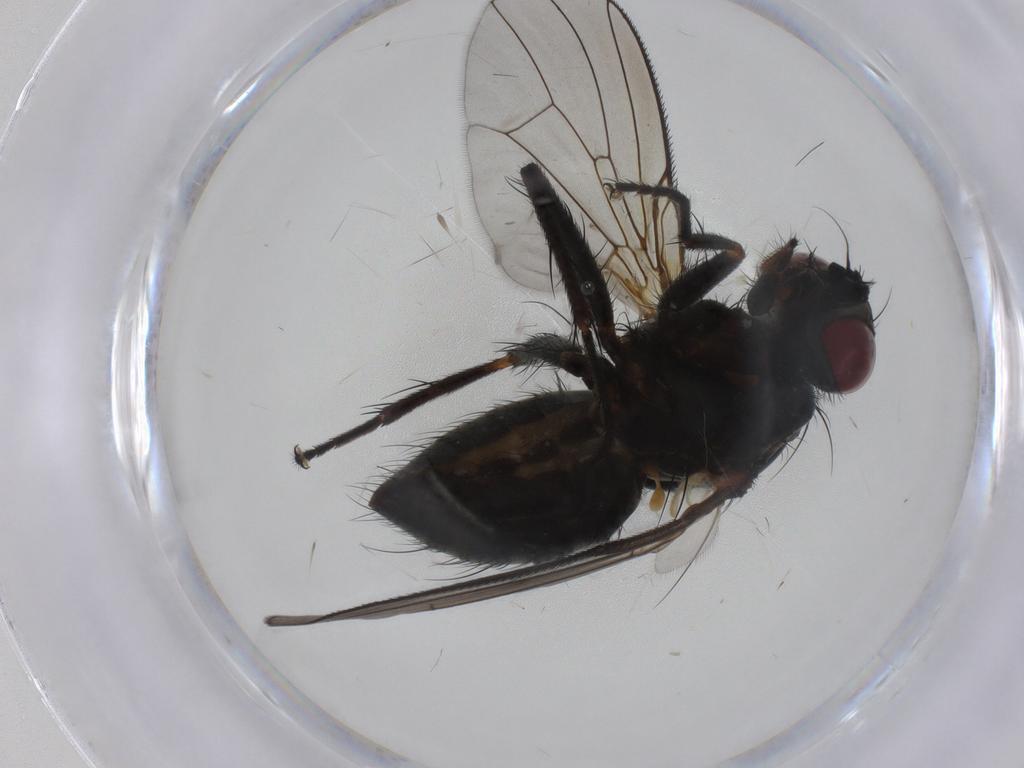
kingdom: Animalia
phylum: Arthropoda
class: Insecta
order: Diptera
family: Muscidae
